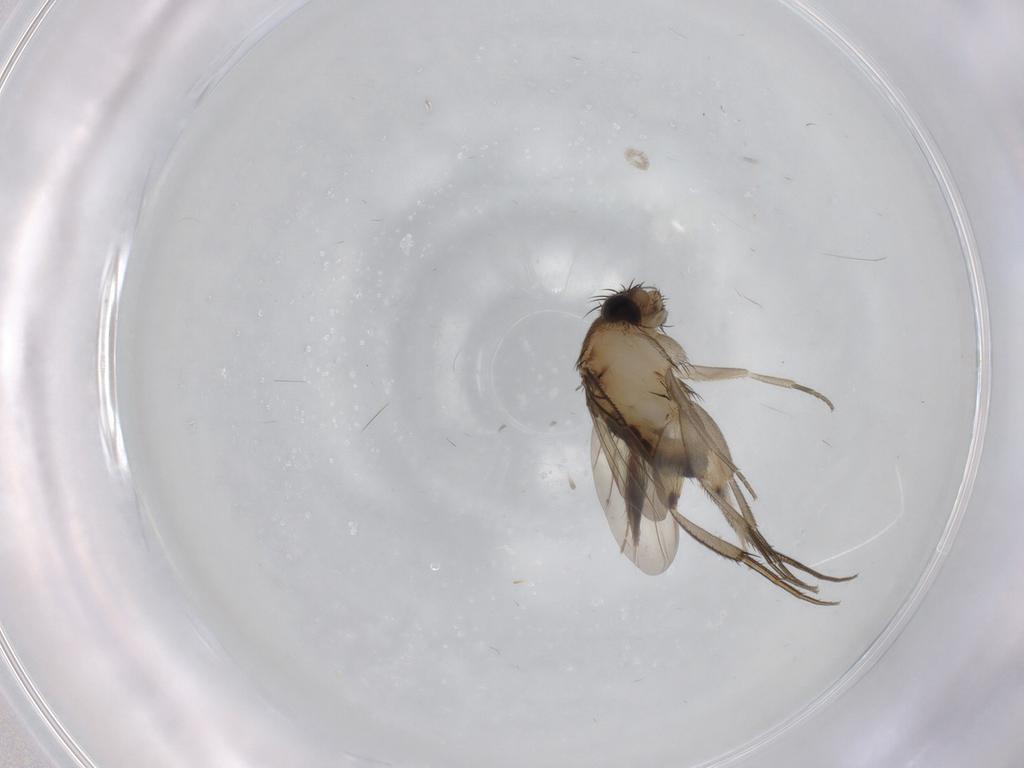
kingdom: Animalia
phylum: Arthropoda
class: Insecta
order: Diptera
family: Phoridae
